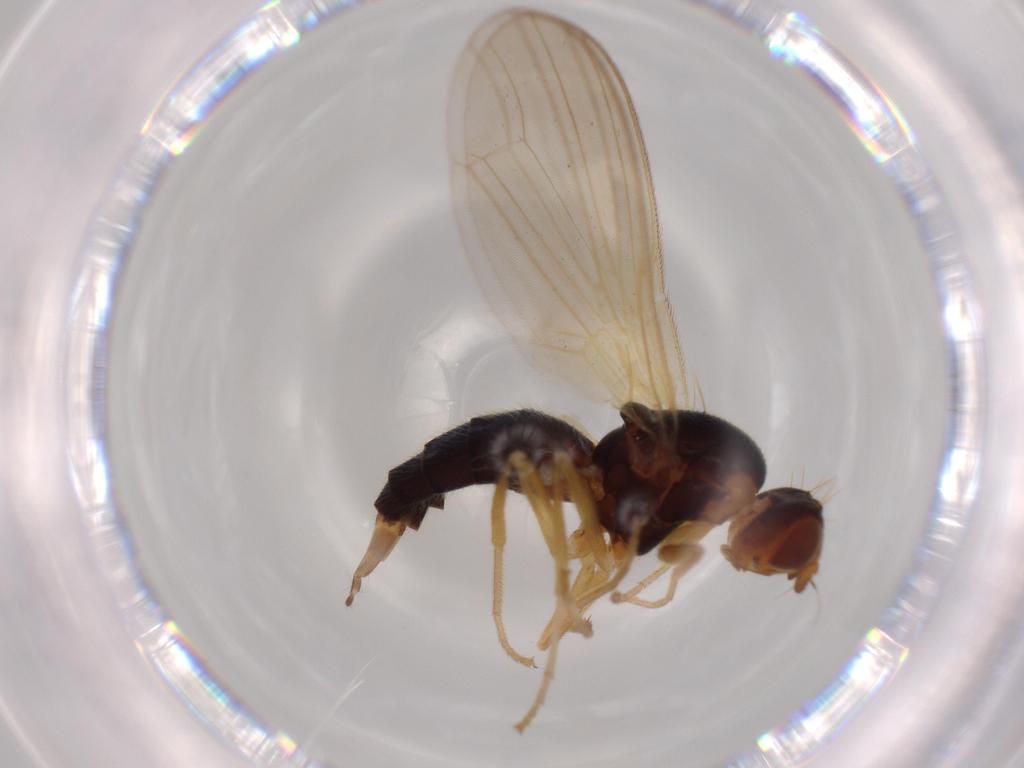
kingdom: Animalia
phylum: Arthropoda
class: Insecta
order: Diptera
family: Psilidae
